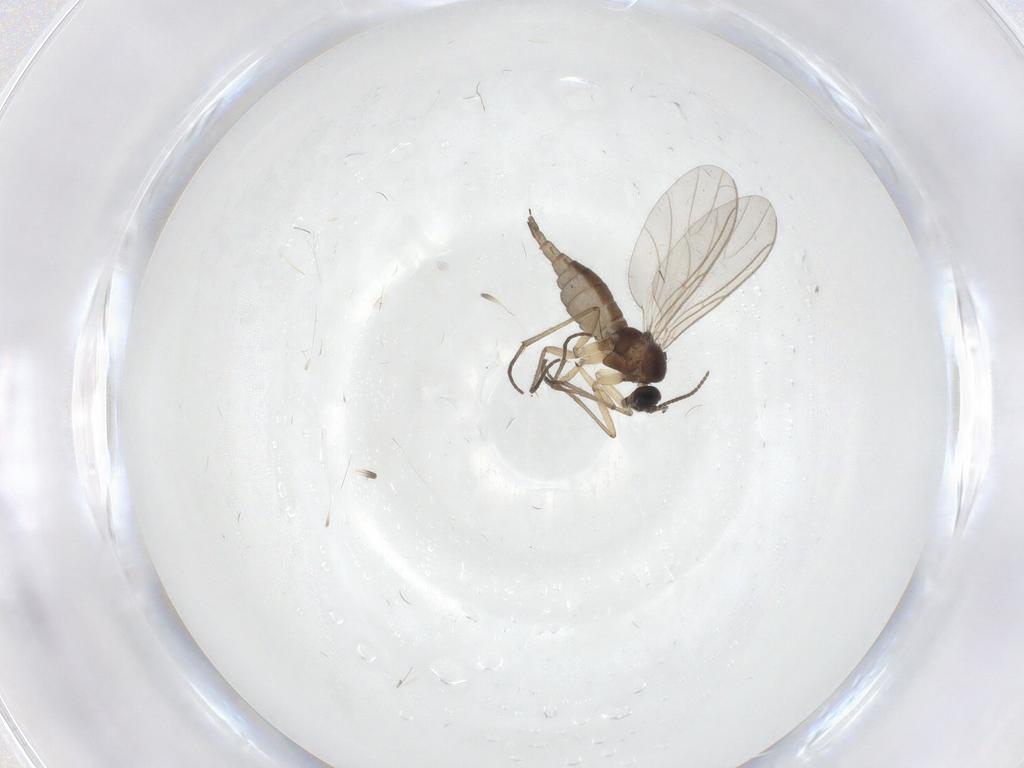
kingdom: Animalia
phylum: Arthropoda
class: Insecta
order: Diptera
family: Sciaridae
